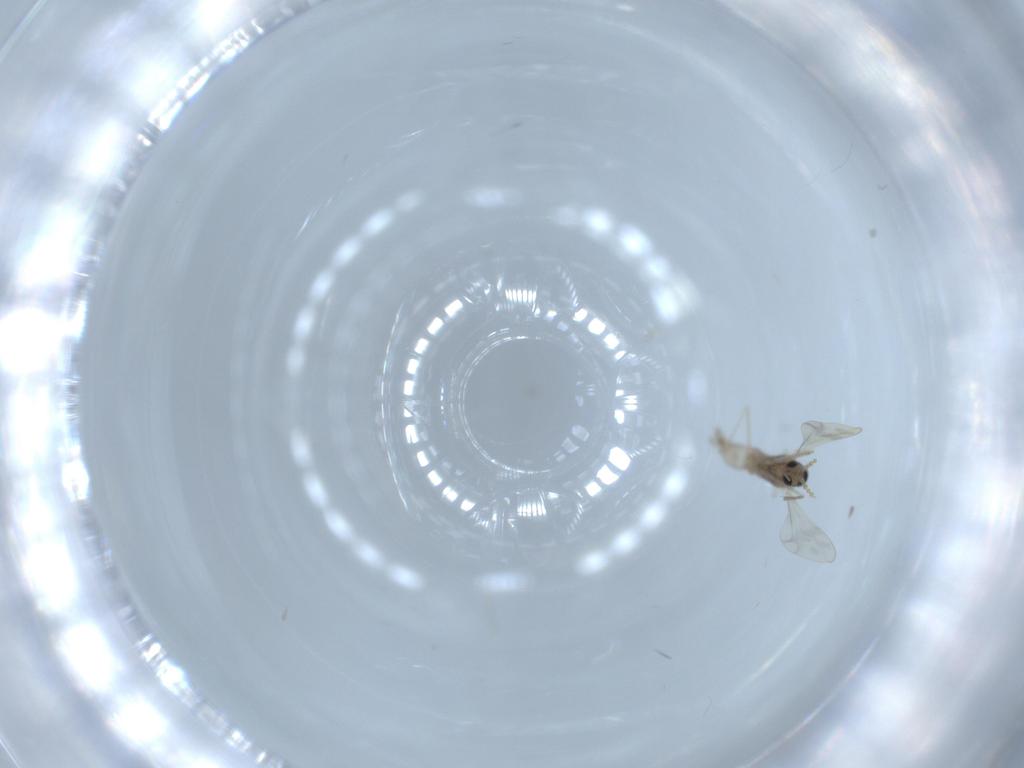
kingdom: Animalia
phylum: Arthropoda
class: Insecta
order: Diptera
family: Cecidomyiidae
